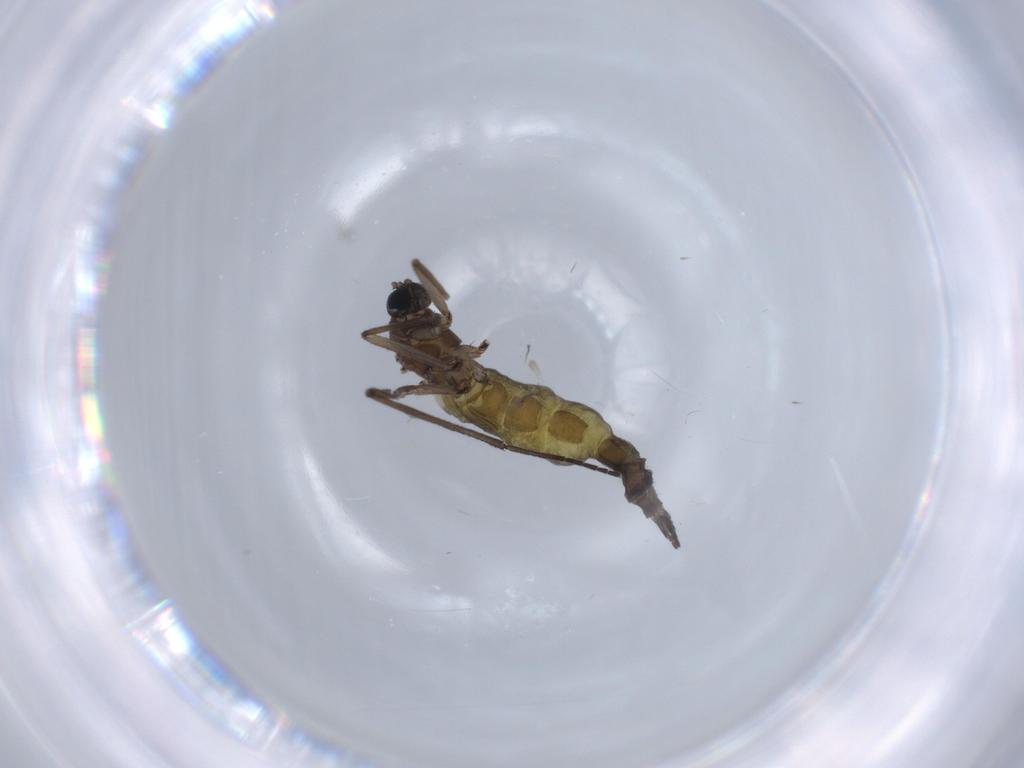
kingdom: Animalia
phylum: Arthropoda
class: Insecta
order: Diptera
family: Sciaridae
